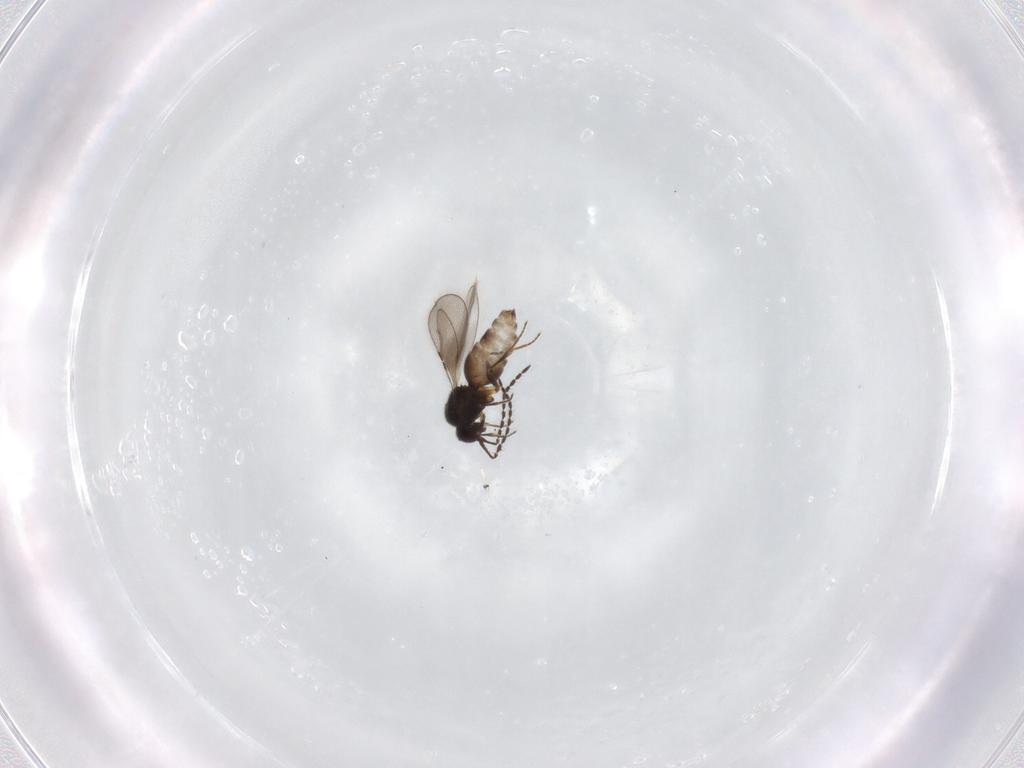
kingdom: Animalia
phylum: Arthropoda
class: Insecta
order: Hymenoptera
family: Ceraphronidae
